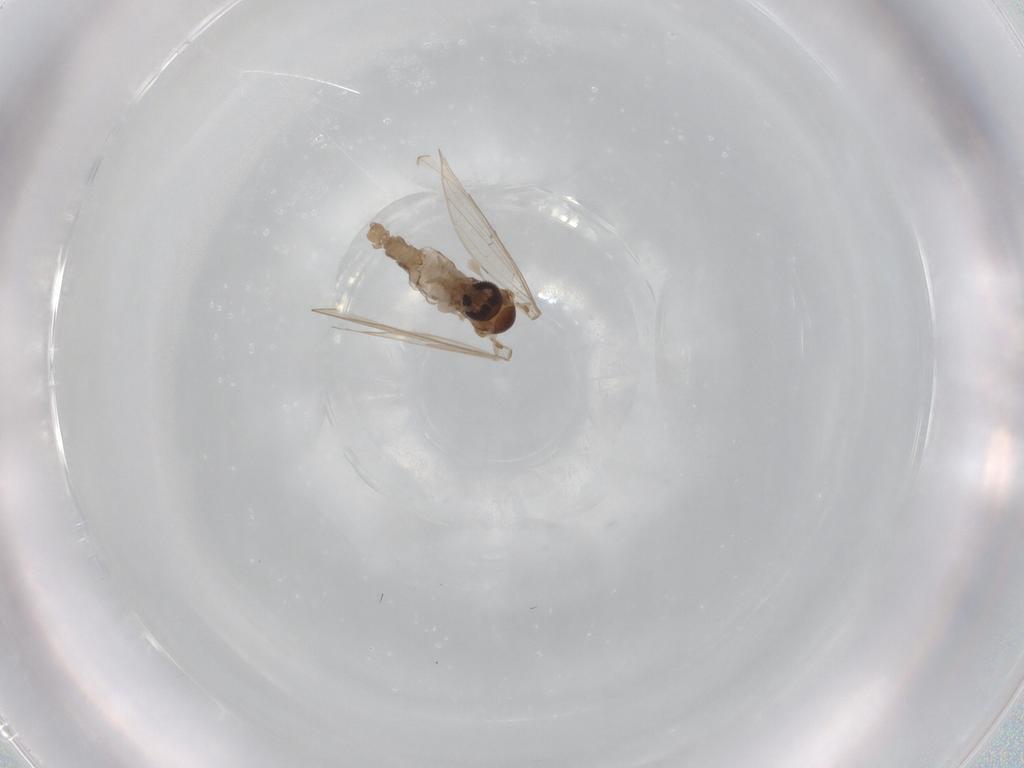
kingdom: Animalia
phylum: Arthropoda
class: Insecta
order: Diptera
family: Psychodidae
